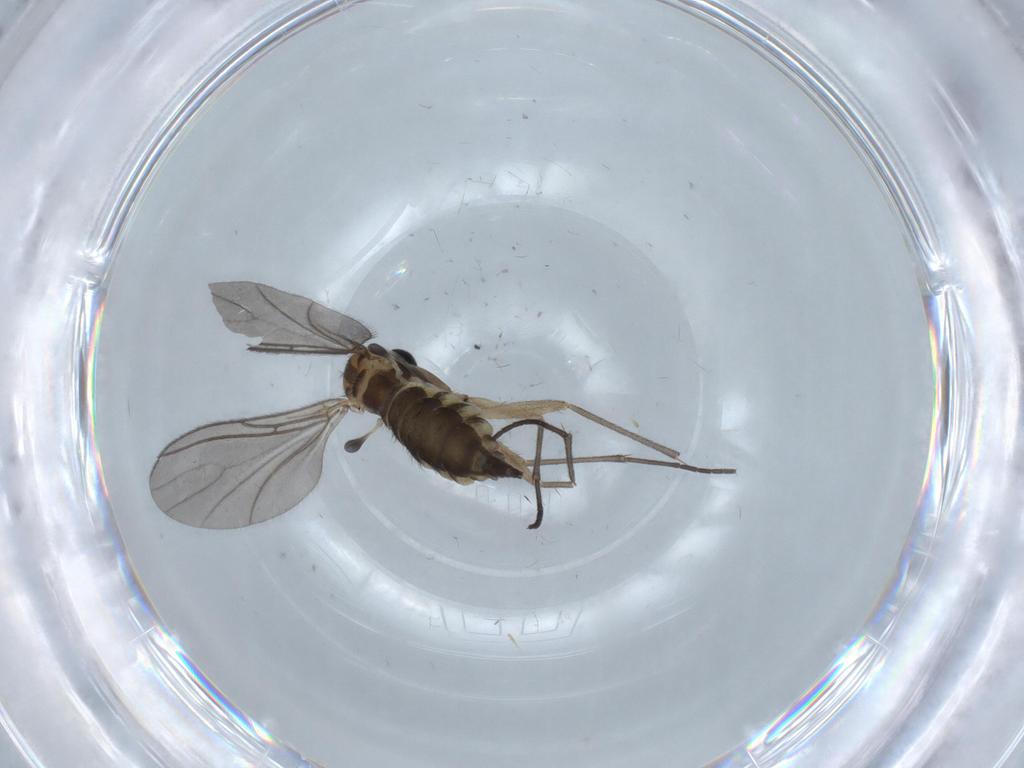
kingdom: Animalia
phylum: Arthropoda
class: Insecta
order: Diptera
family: Sciaridae
